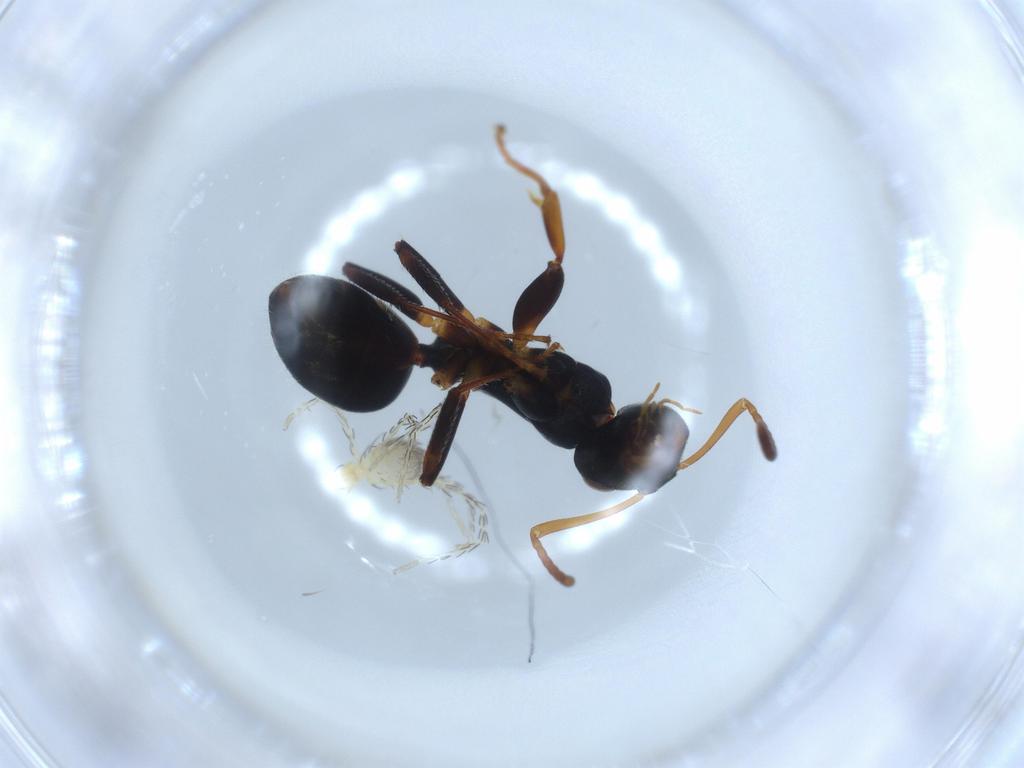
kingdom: Animalia
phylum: Arthropoda
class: Arachnida
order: Trombidiformes
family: Erythraeidae
